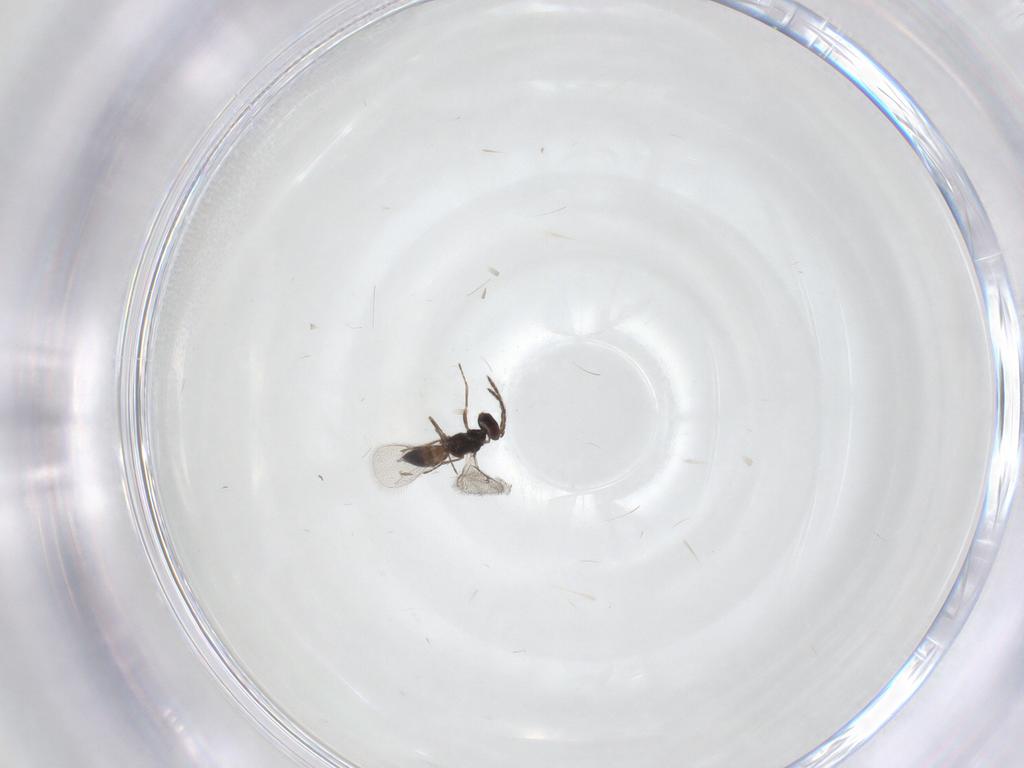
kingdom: Animalia
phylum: Arthropoda
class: Insecta
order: Hymenoptera
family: Eulophidae
